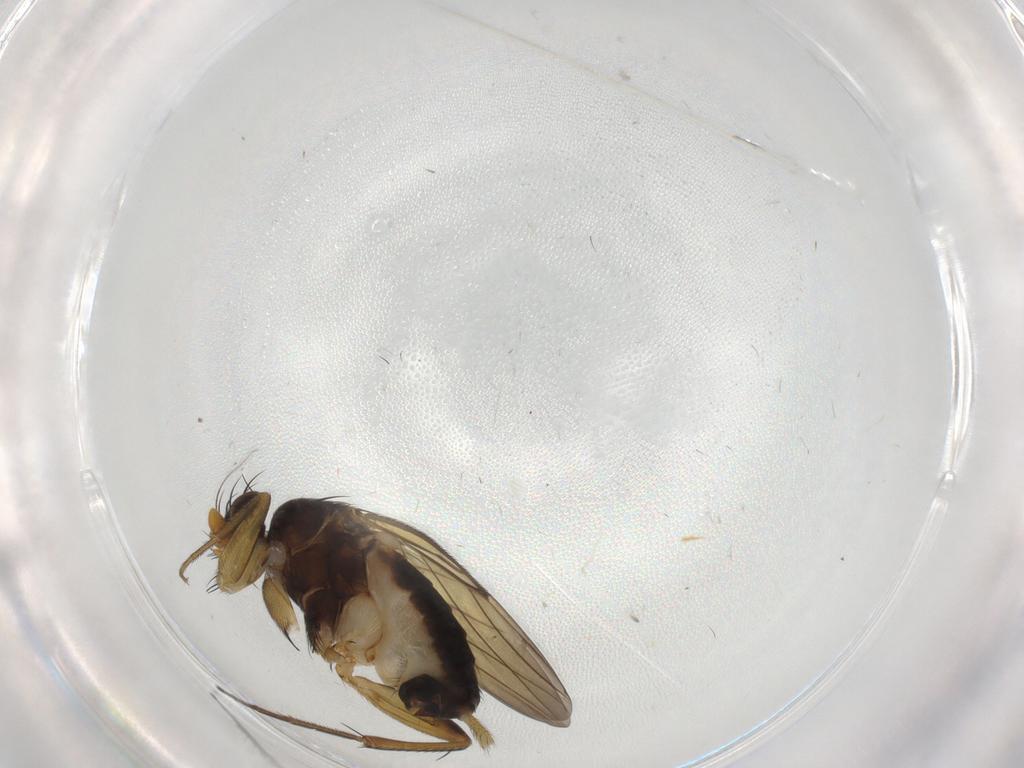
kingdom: Animalia
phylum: Arthropoda
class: Insecta
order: Diptera
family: Phoridae
